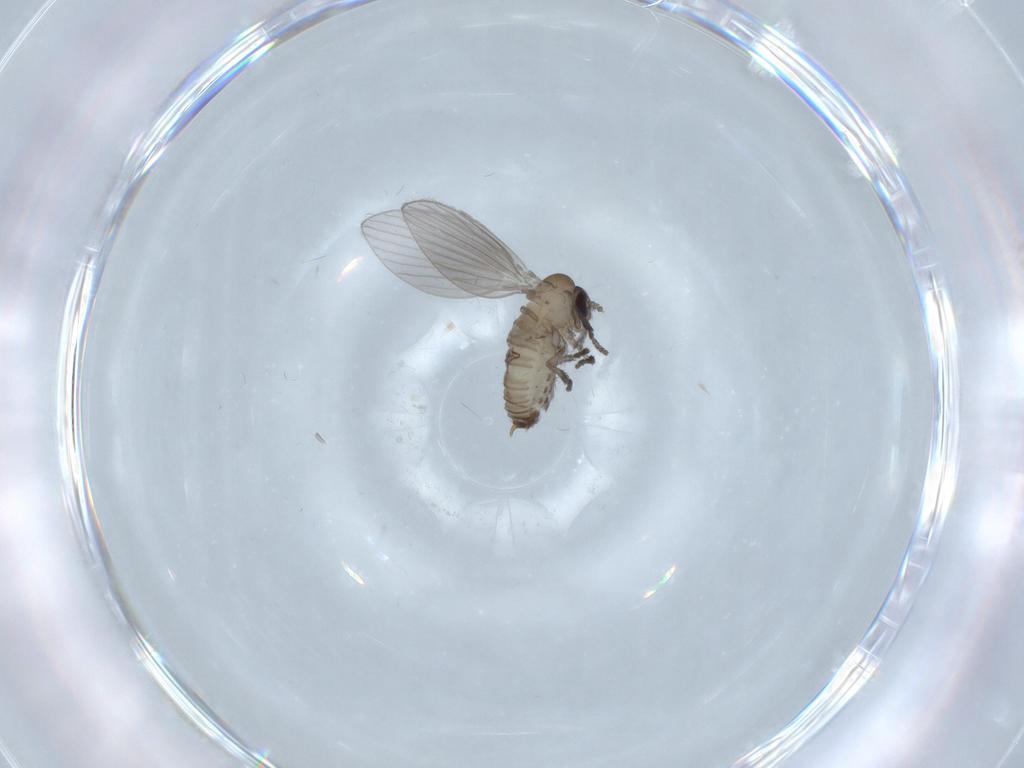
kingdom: Animalia
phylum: Arthropoda
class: Insecta
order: Diptera
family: Psychodidae
